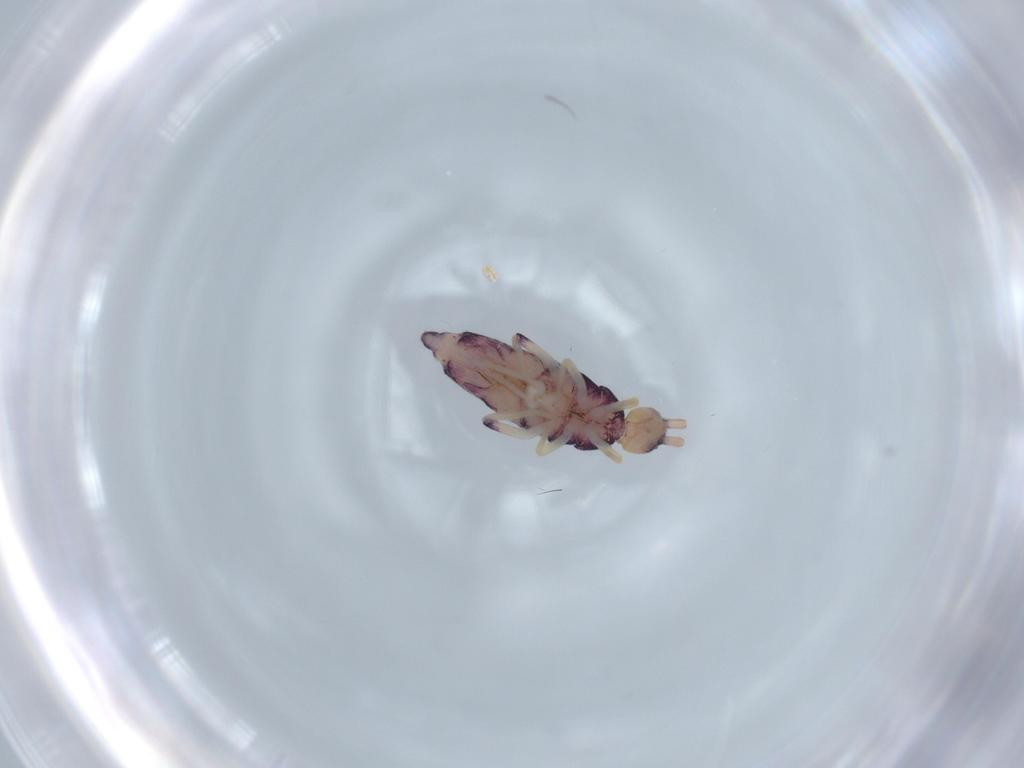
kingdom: Animalia
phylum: Arthropoda
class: Collembola
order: Entomobryomorpha
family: Entomobryidae
